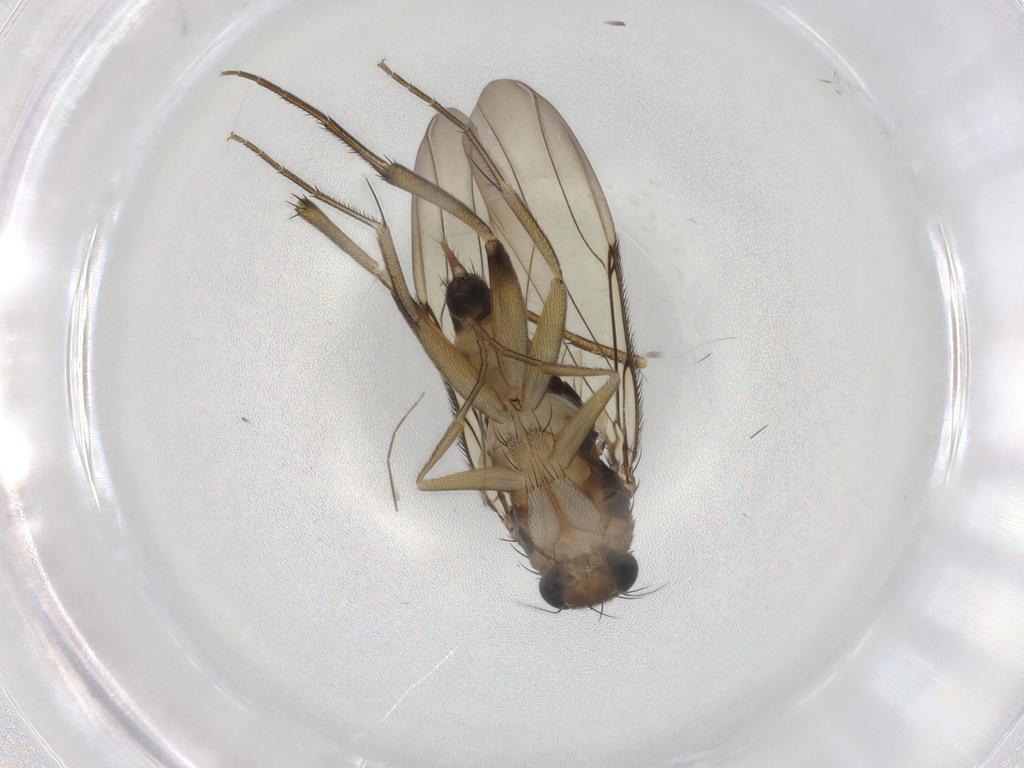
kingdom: Animalia
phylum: Arthropoda
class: Insecta
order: Diptera
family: Phoridae
